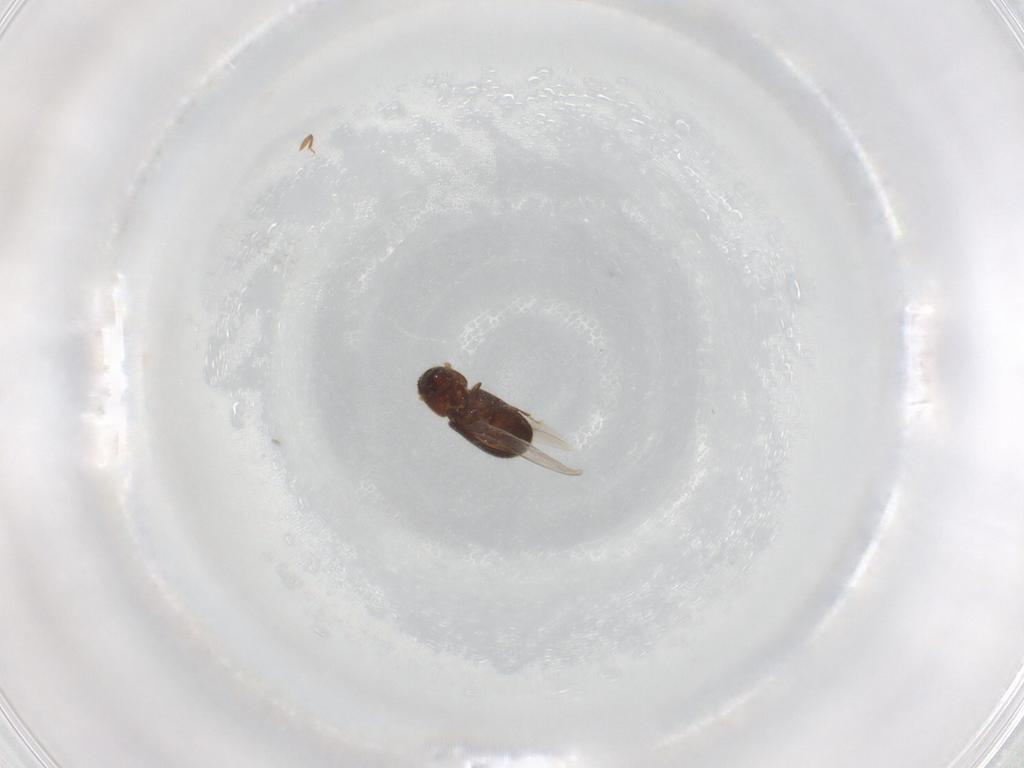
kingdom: Animalia
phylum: Arthropoda
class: Insecta
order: Coleoptera
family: Curculionidae
